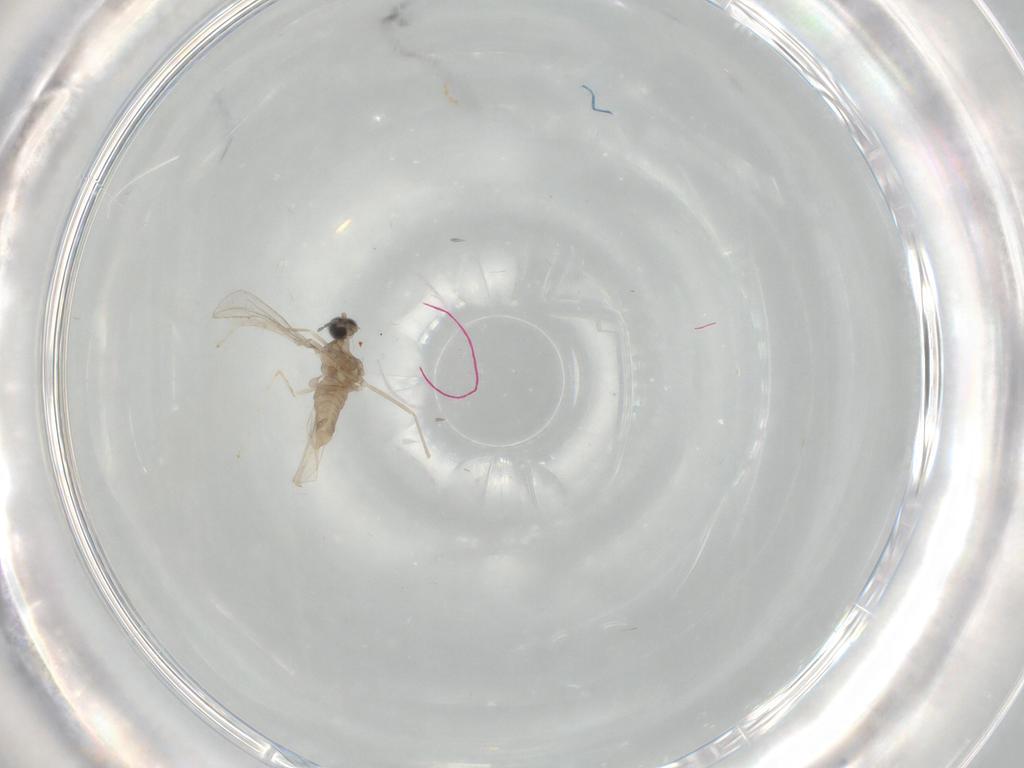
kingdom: Animalia
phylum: Arthropoda
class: Insecta
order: Diptera
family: Cecidomyiidae
